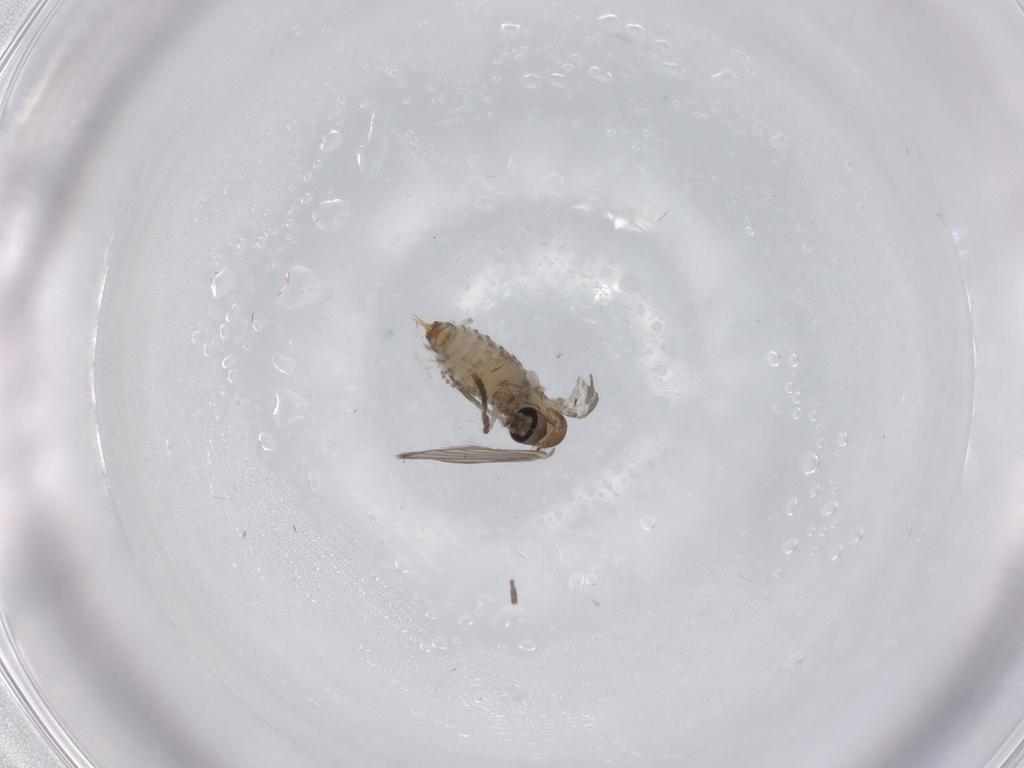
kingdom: Animalia
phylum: Arthropoda
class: Insecta
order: Diptera
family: Psychodidae
